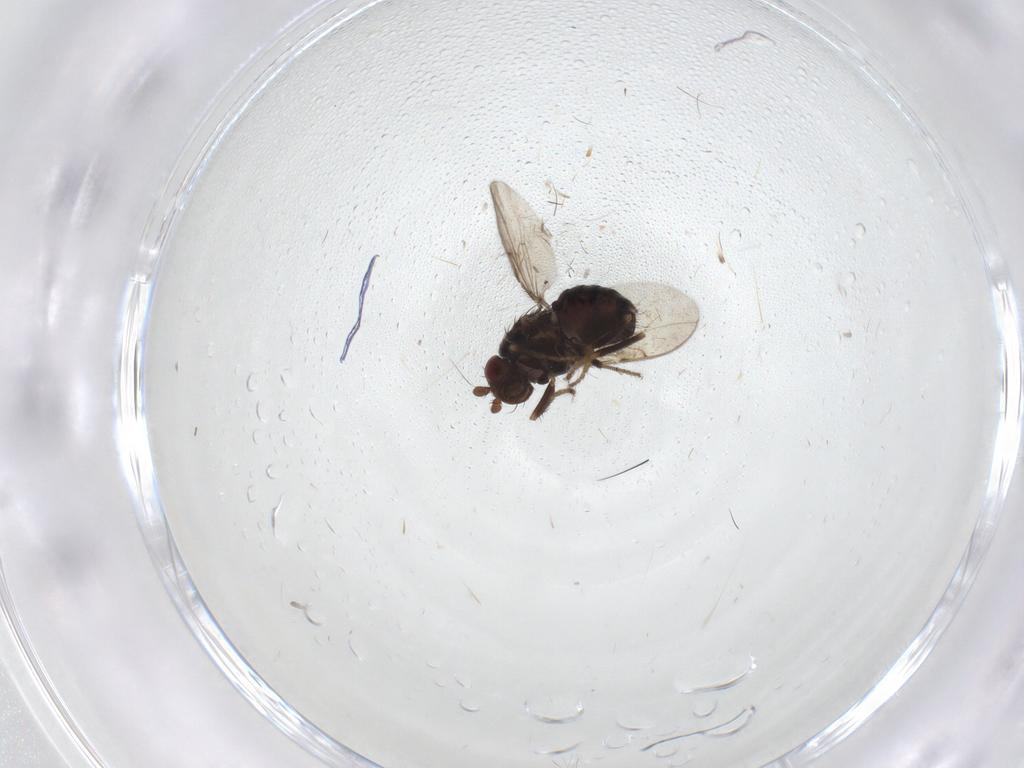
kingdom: Animalia
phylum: Arthropoda
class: Insecta
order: Diptera
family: Sphaeroceridae
